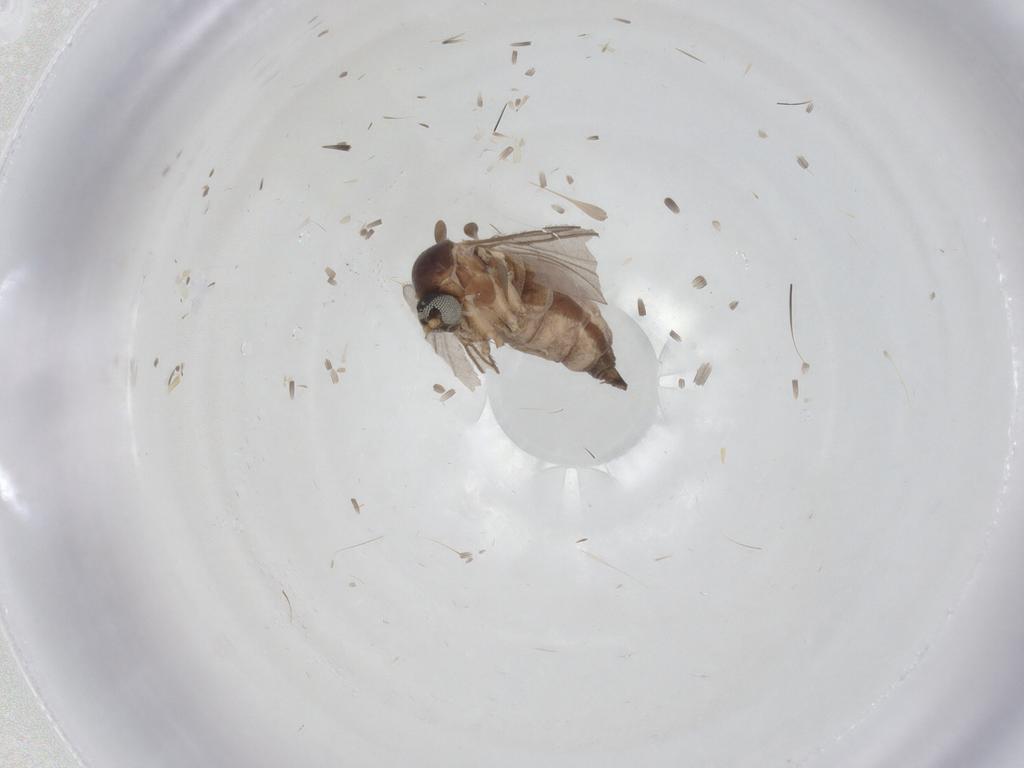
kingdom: Animalia
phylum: Arthropoda
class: Insecta
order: Diptera
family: Sciaridae
